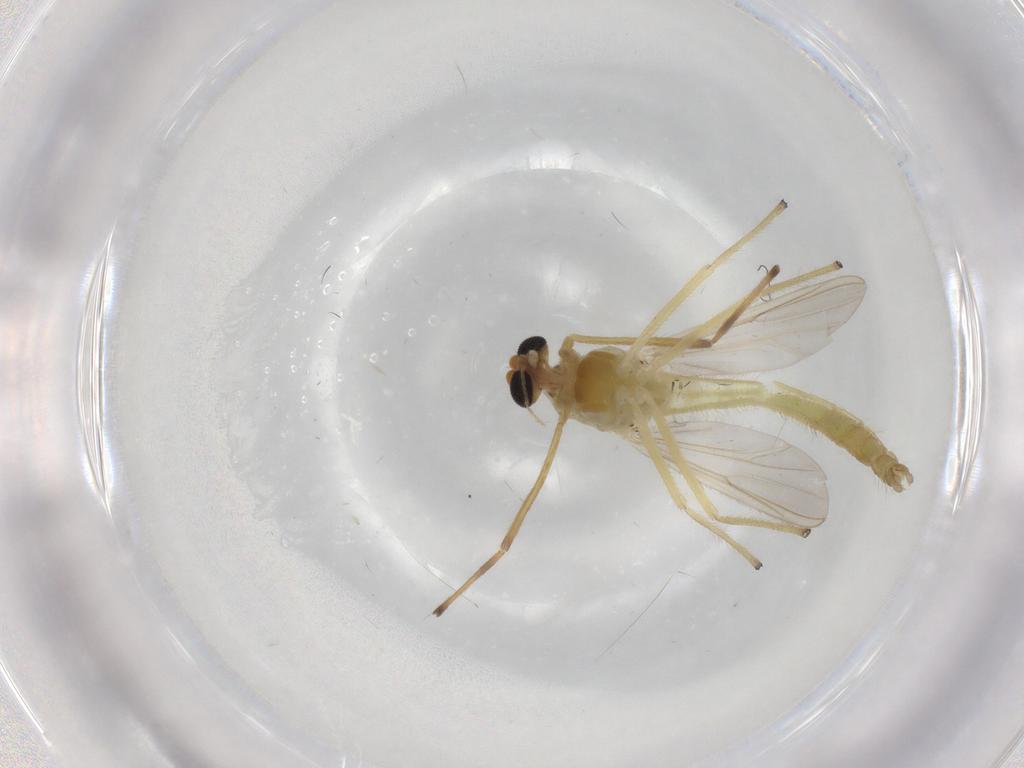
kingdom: Animalia
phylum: Arthropoda
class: Insecta
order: Diptera
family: Chironomidae
